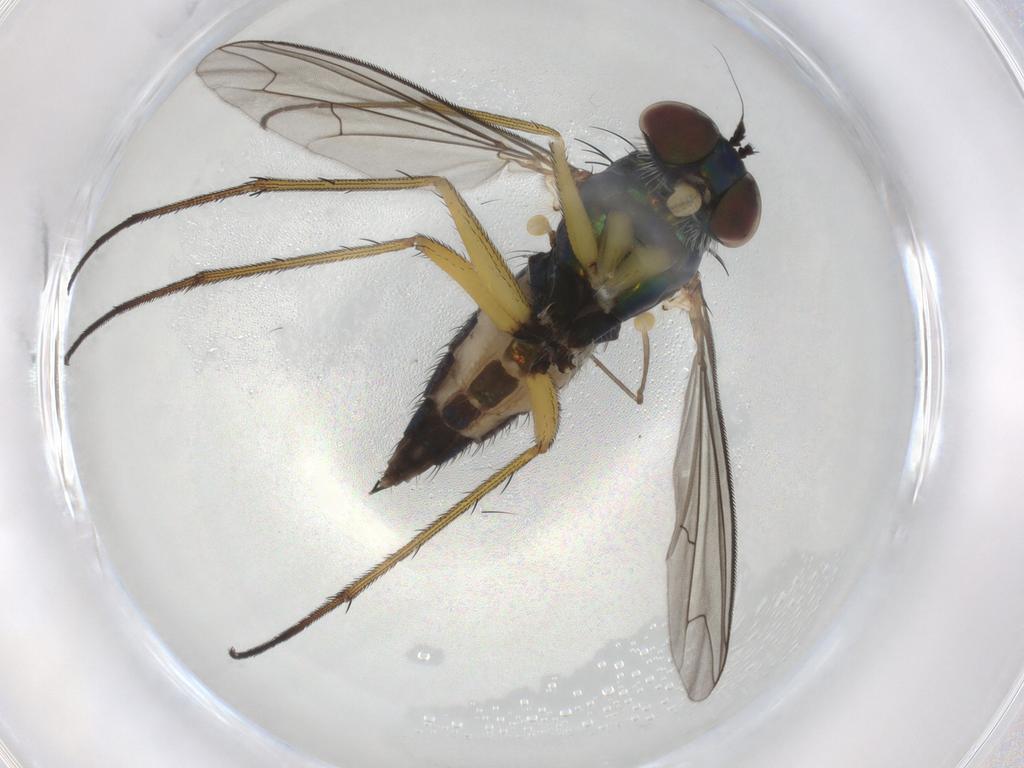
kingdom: Animalia
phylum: Arthropoda
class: Insecta
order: Diptera
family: Dolichopodidae
